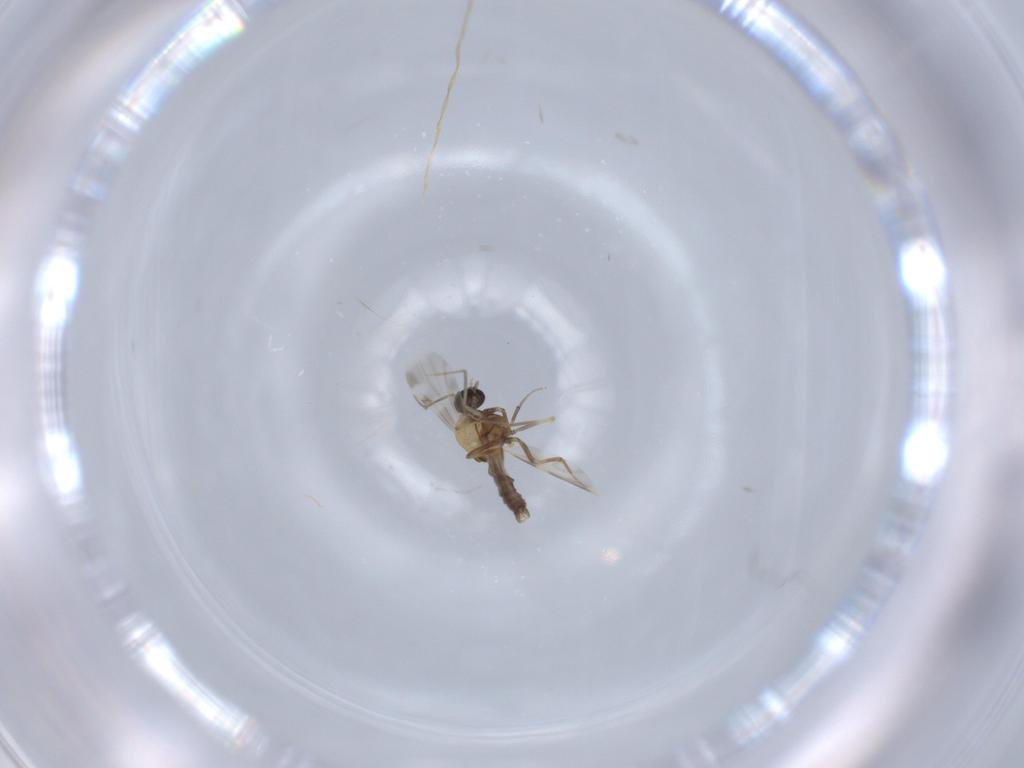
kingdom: Animalia
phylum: Arthropoda
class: Insecta
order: Diptera
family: Ceratopogonidae
